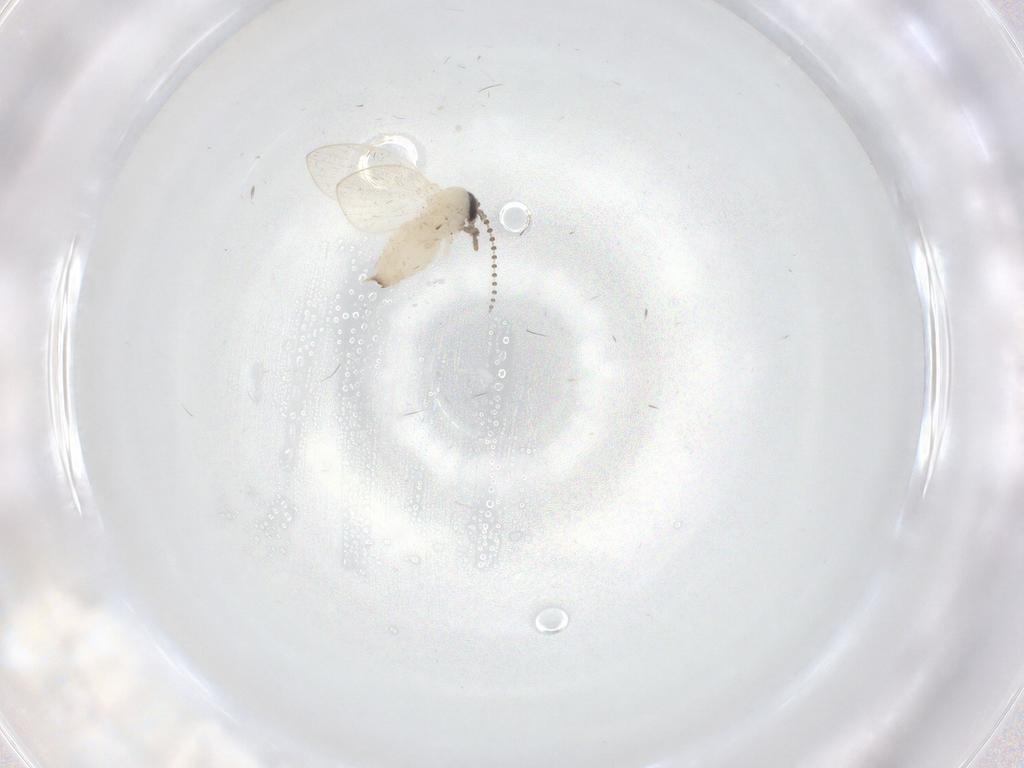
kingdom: Animalia
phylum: Arthropoda
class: Insecta
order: Diptera
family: Psychodidae
